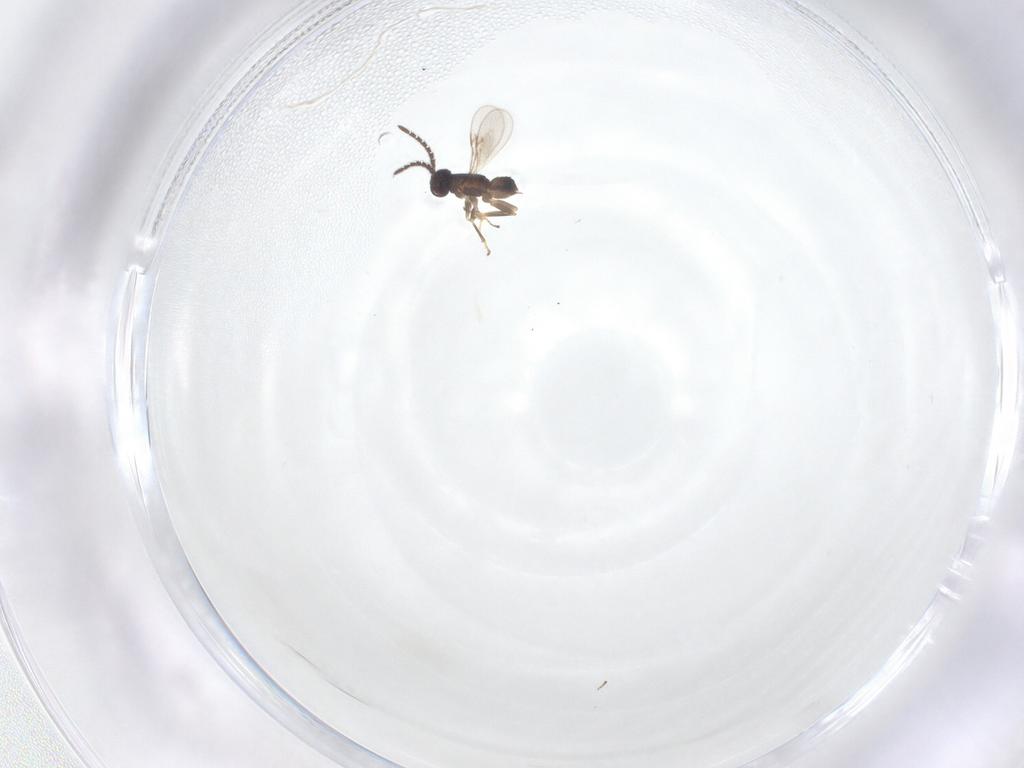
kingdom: Animalia
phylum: Arthropoda
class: Insecta
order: Hymenoptera
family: Encyrtidae
